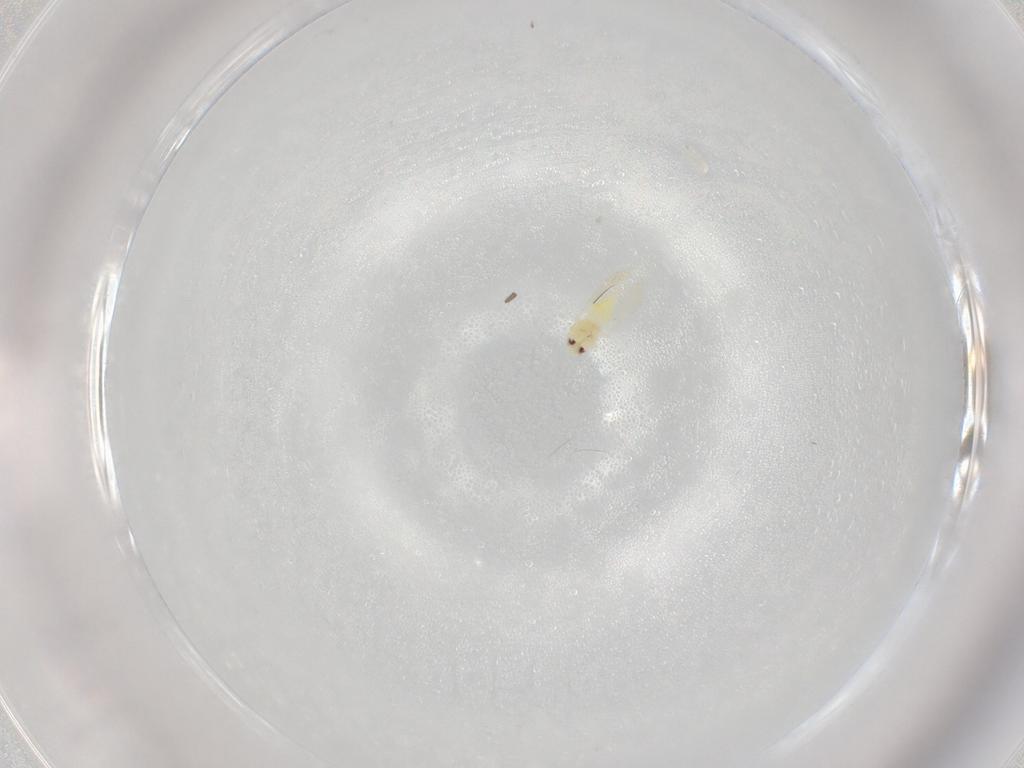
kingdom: Animalia
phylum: Arthropoda
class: Insecta
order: Hemiptera
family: Aleyrodidae
